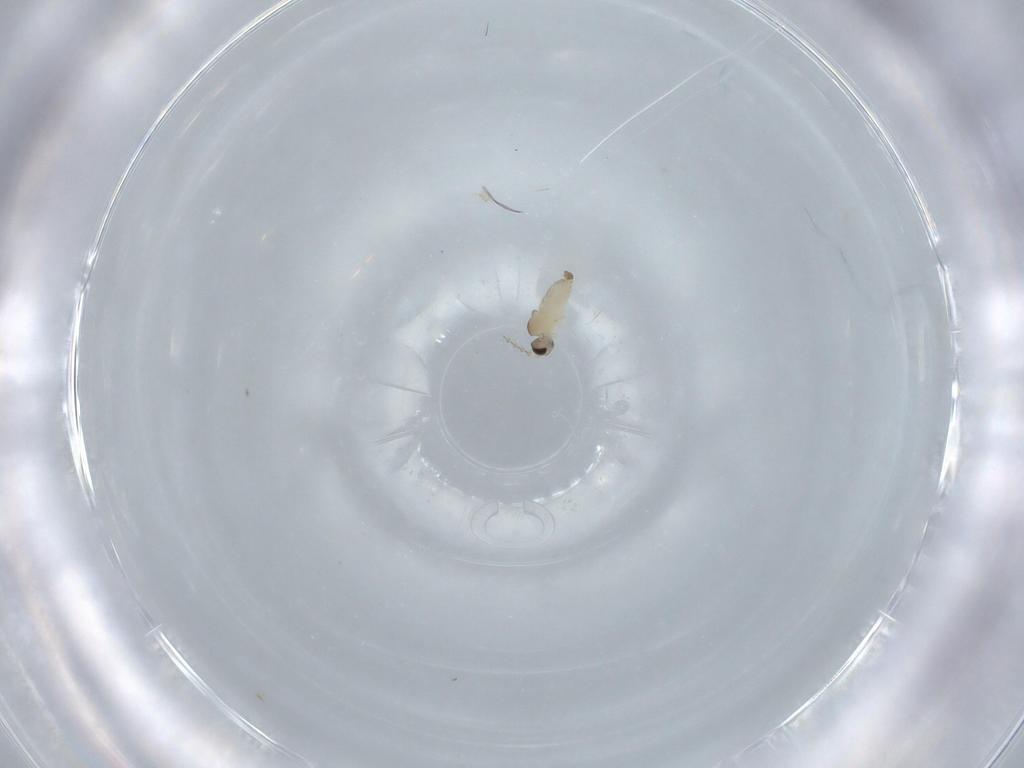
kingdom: Animalia
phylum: Arthropoda
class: Insecta
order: Diptera
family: Cecidomyiidae
